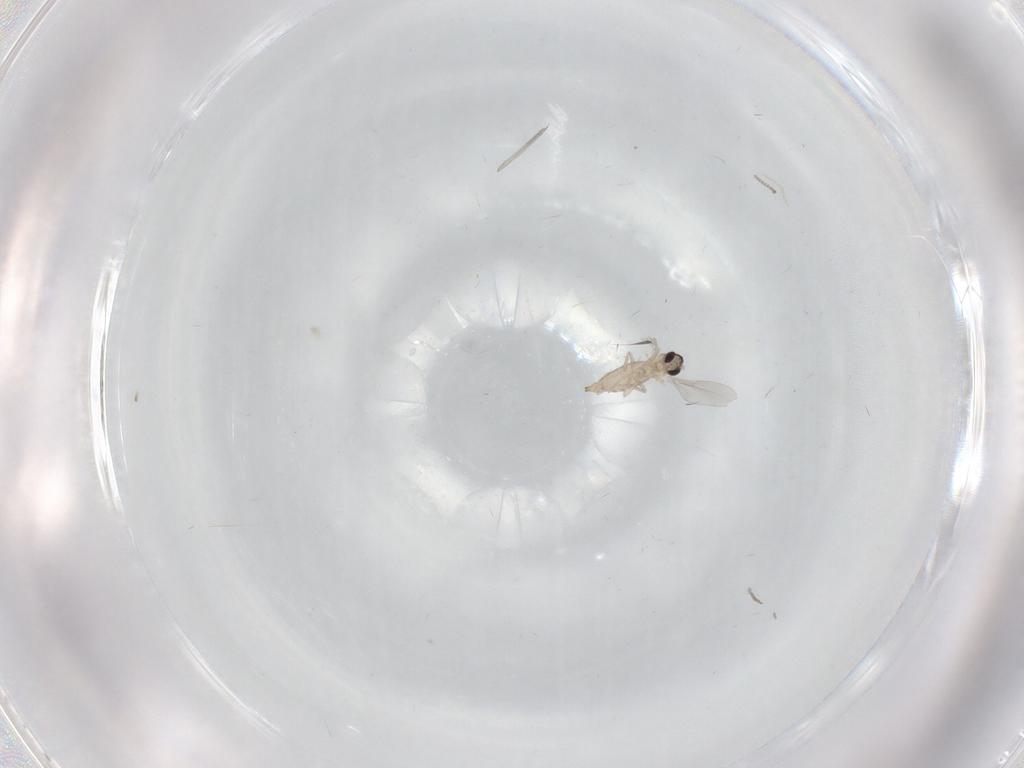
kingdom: Animalia
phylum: Arthropoda
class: Insecta
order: Diptera
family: Cecidomyiidae
